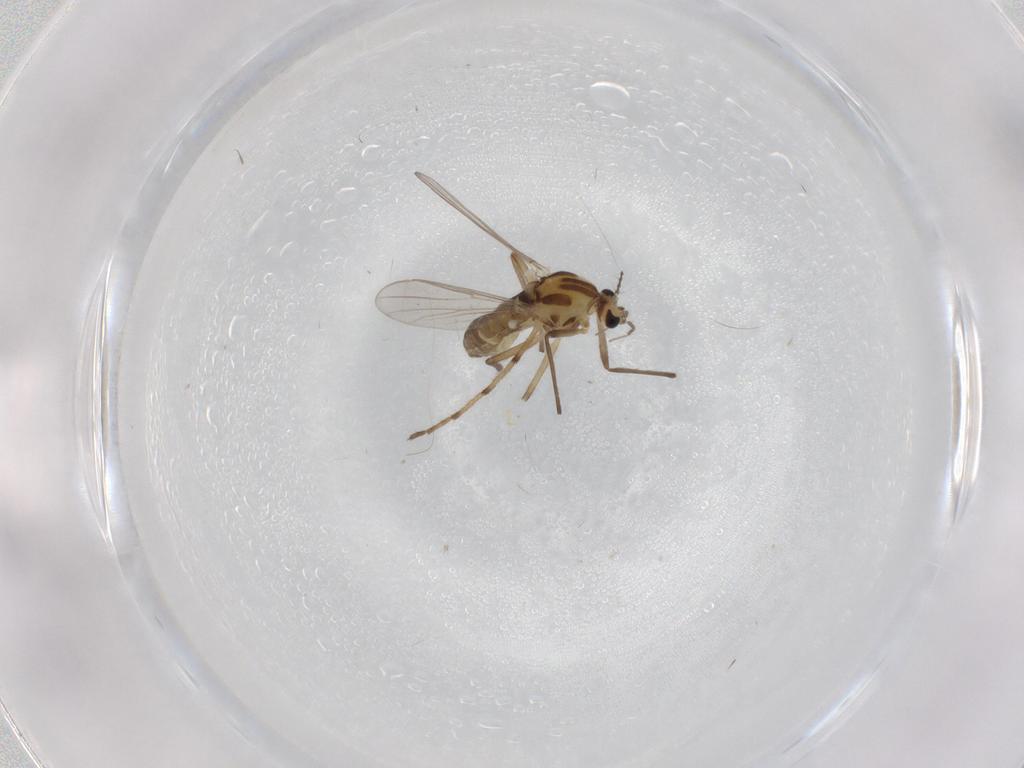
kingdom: Animalia
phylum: Arthropoda
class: Insecta
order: Diptera
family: Chironomidae
